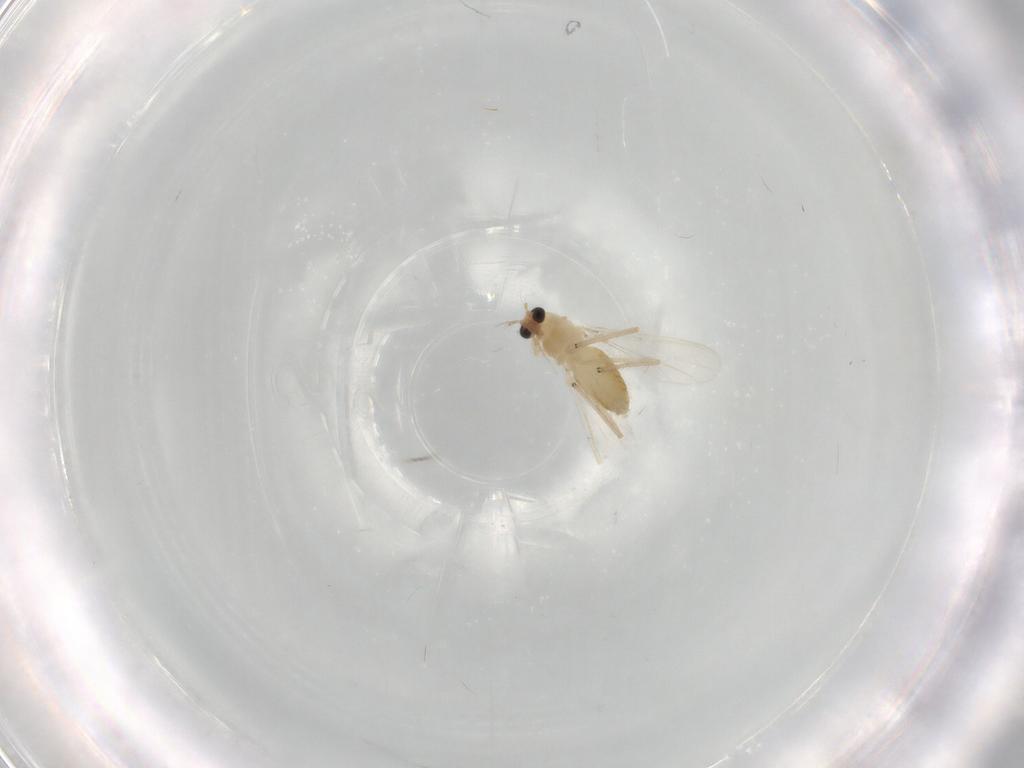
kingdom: Animalia
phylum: Arthropoda
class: Insecta
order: Diptera
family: Chironomidae
